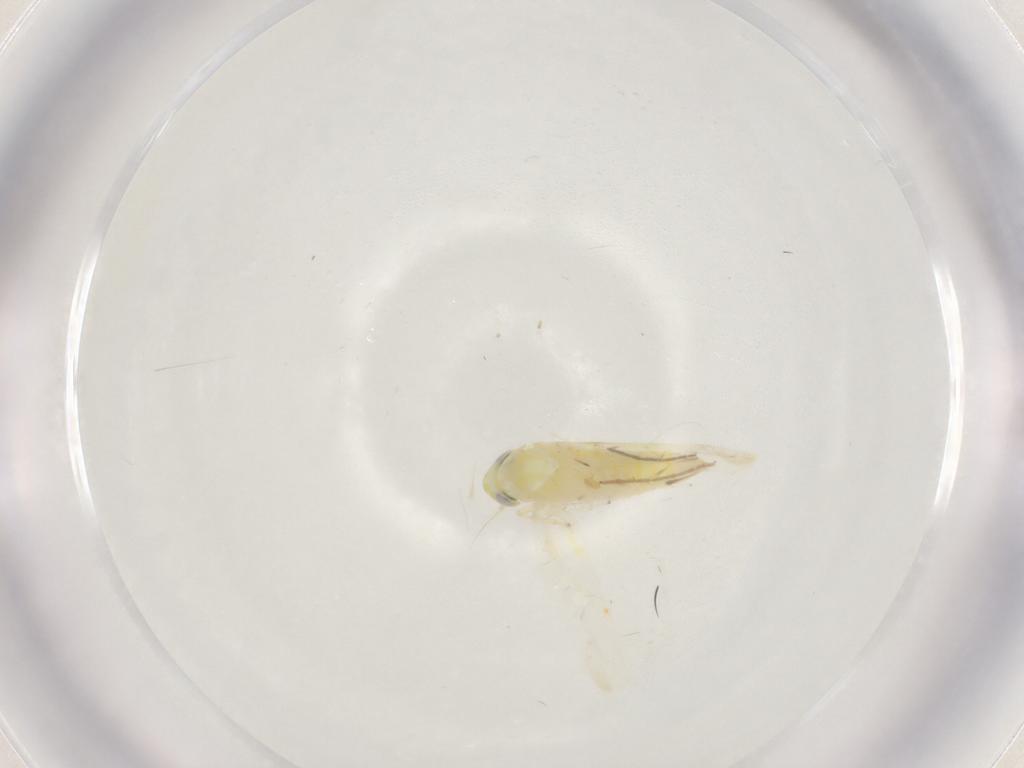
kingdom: Animalia
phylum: Arthropoda
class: Insecta
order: Hemiptera
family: Cicadellidae
